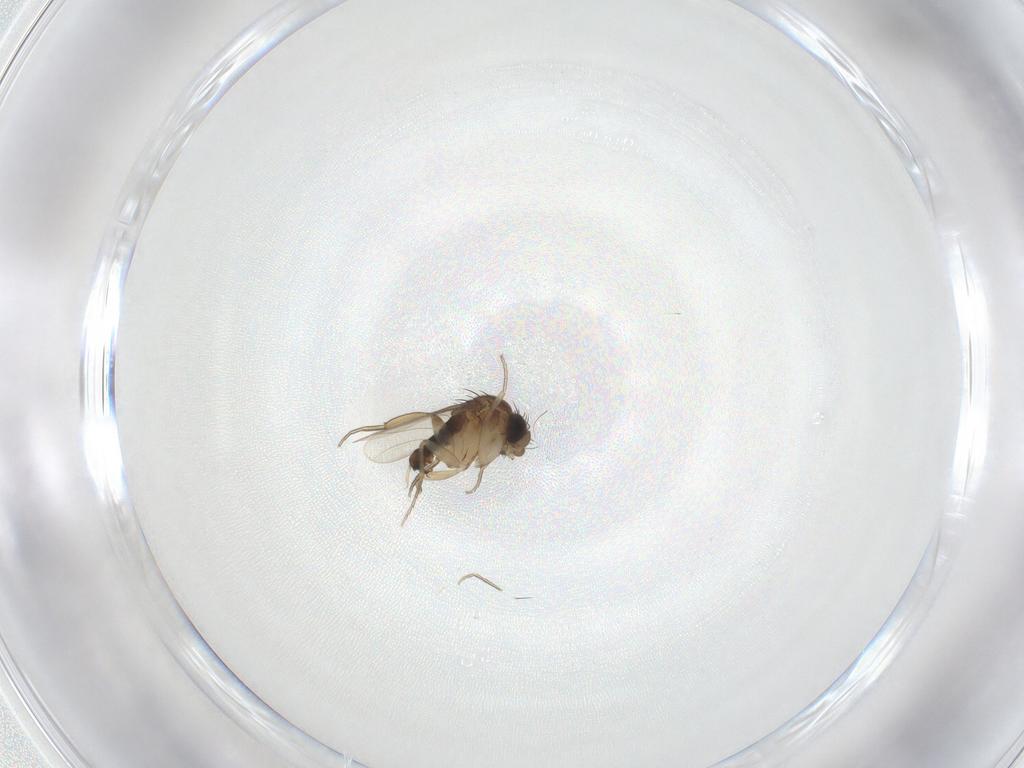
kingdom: Animalia
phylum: Arthropoda
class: Insecta
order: Diptera
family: Phoridae
